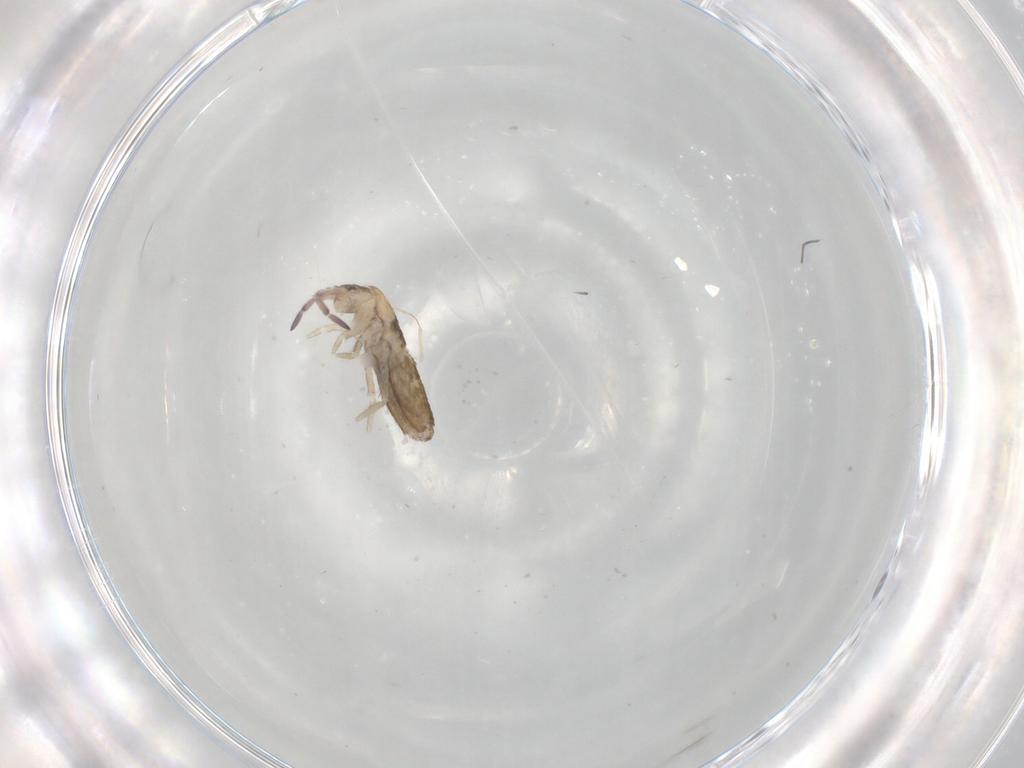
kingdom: Animalia
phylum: Arthropoda
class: Collembola
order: Entomobryomorpha
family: Entomobryidae
